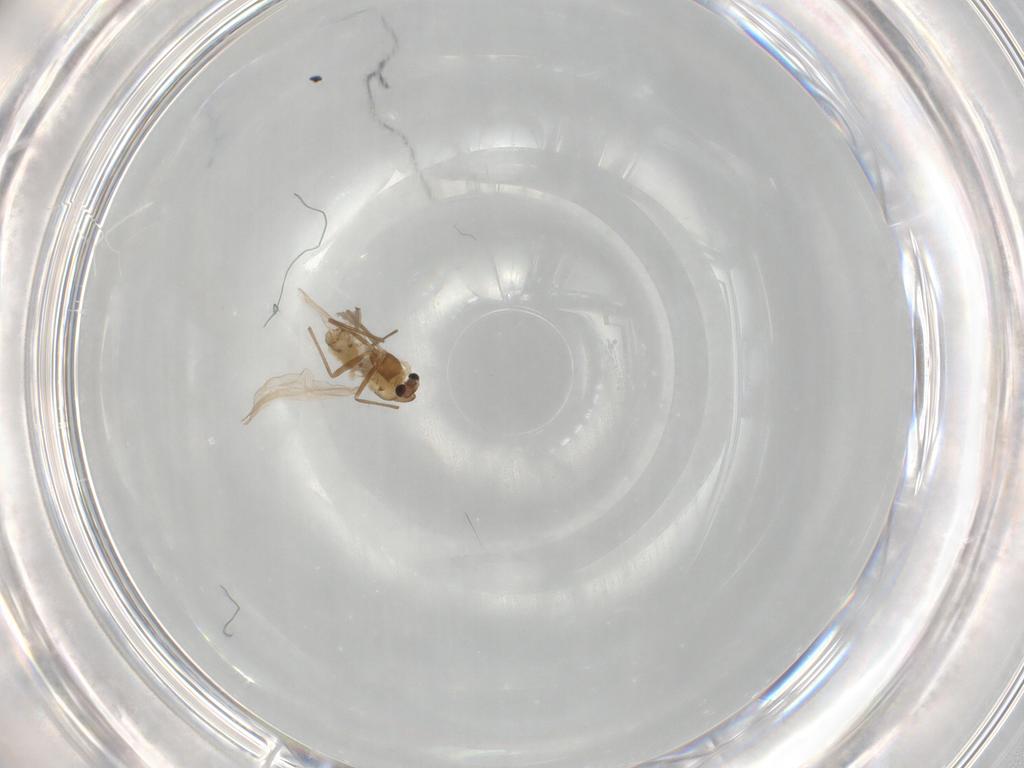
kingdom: Animalia
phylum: Arthropoda
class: Insecta
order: Diptera
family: Chironomidae
